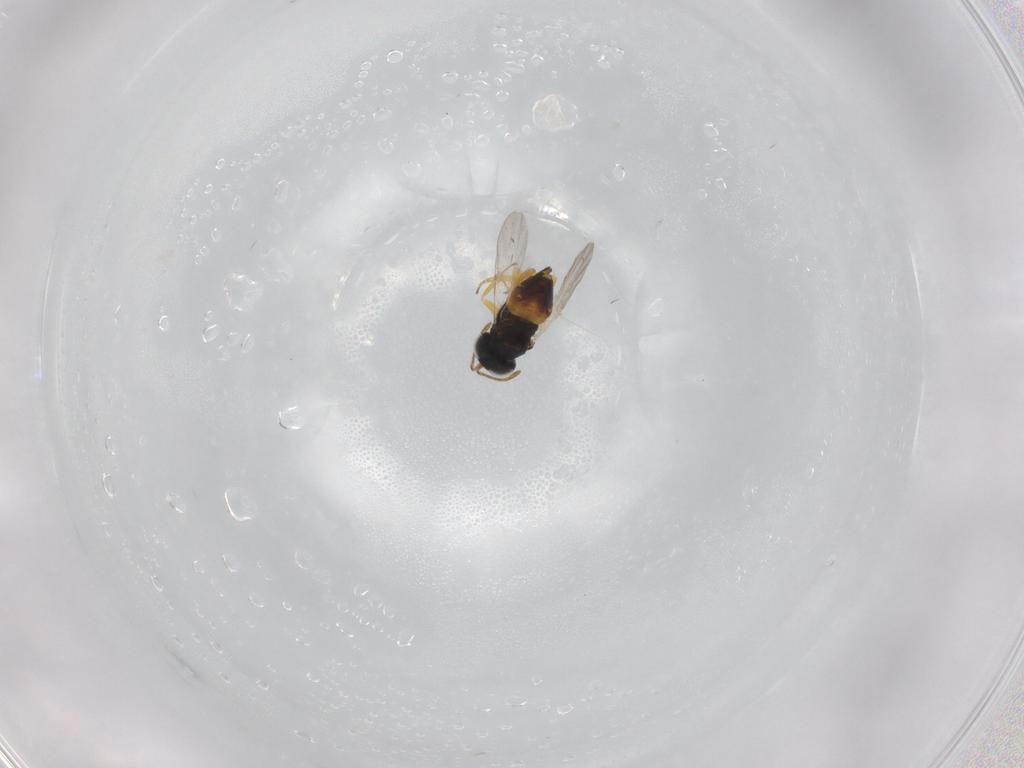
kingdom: Animalia
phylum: Arthropoda
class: Insecta
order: Hymenoptera
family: Encyrtidae
